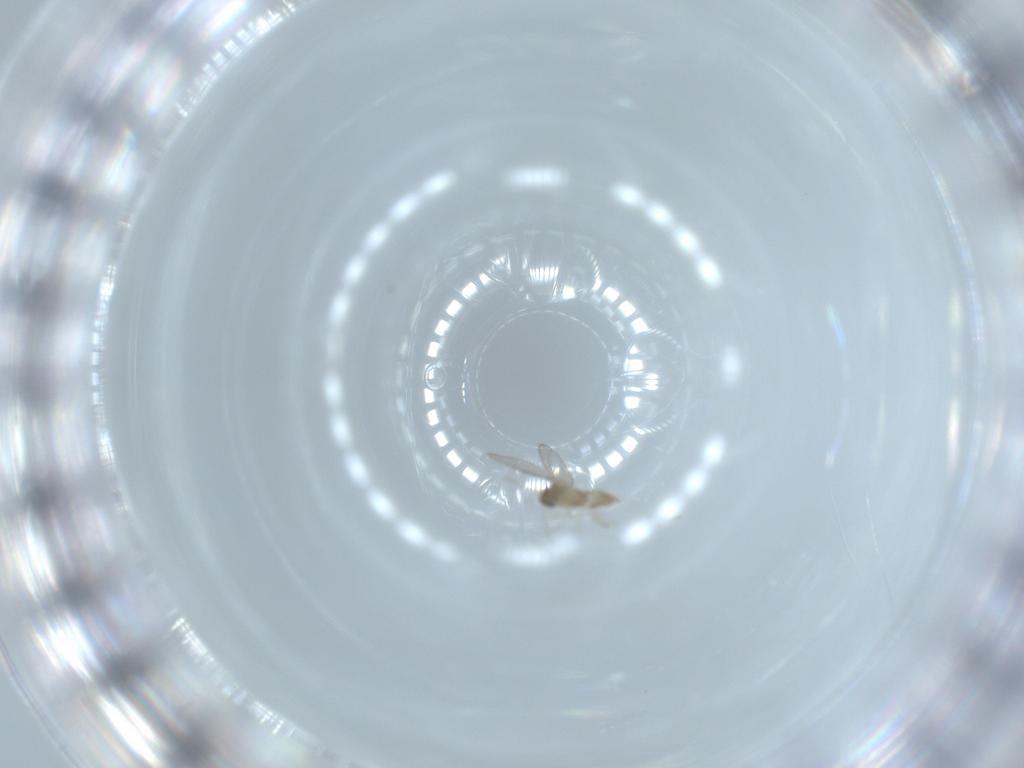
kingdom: Animalia
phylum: Arthropoda
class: Insecta
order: Diptera
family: Cecidomyiidae
